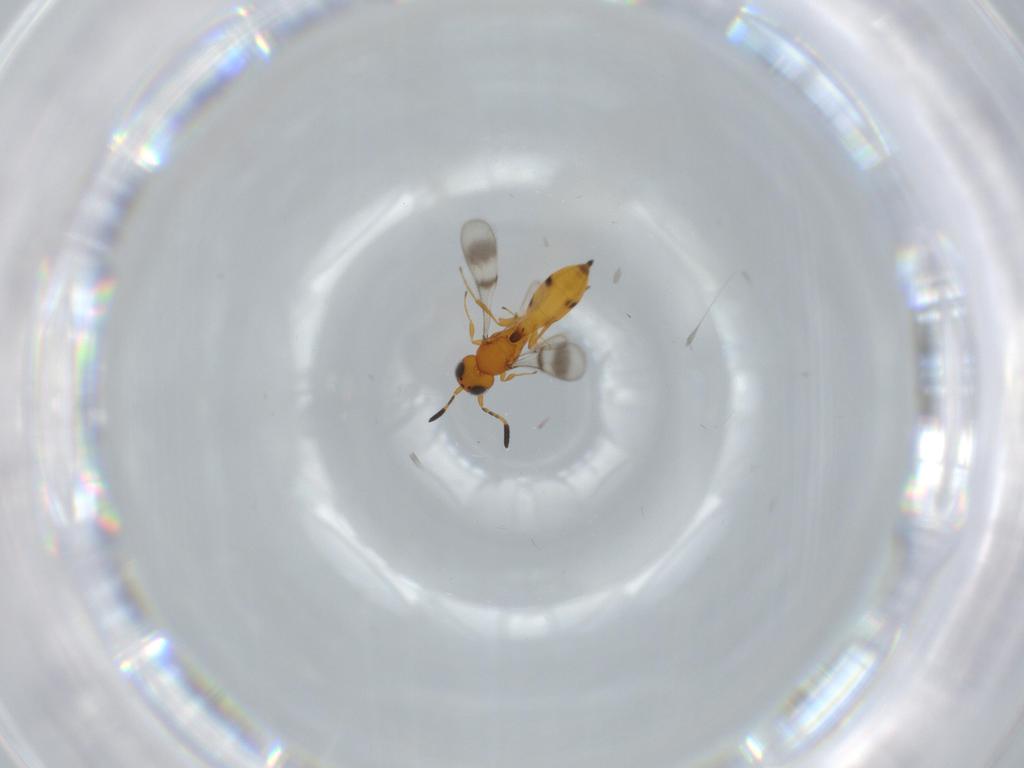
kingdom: Animalia
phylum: Arthropoda
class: Insecta
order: Hymenoptera
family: Scelionidae
